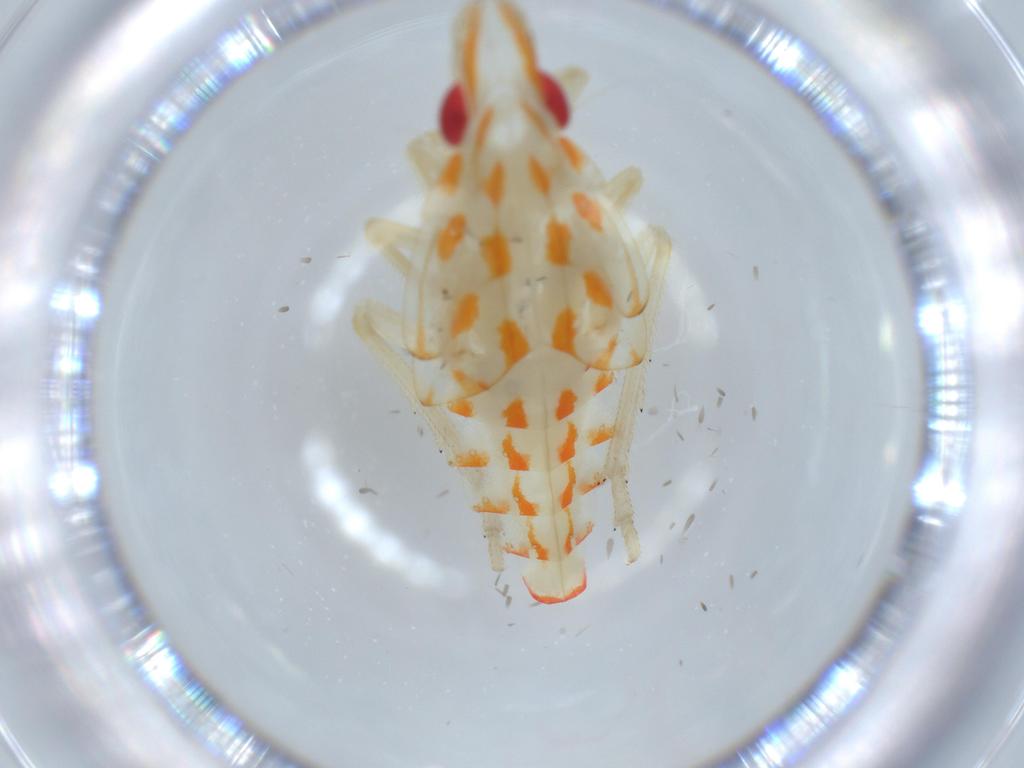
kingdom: Animalia
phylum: Arthropoda
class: Insecta
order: Hemiptera
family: Tropiduchidae
